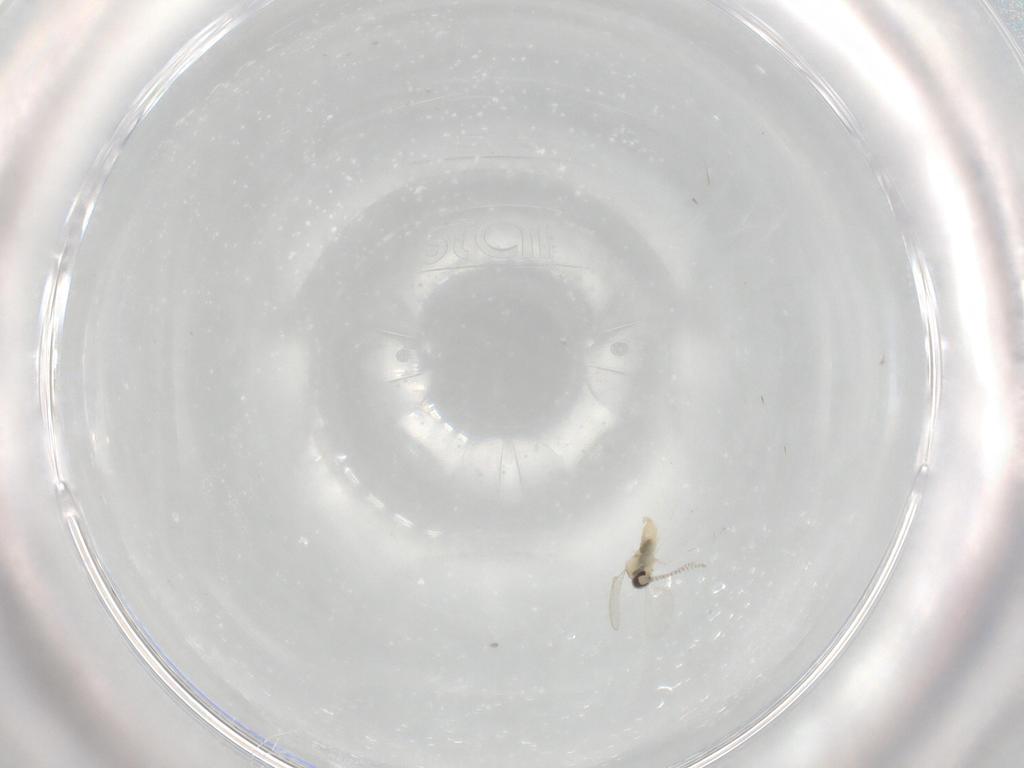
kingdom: Animalia
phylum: Arthropoda
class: Insecta
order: Diptera
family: Cecidomyiidae
